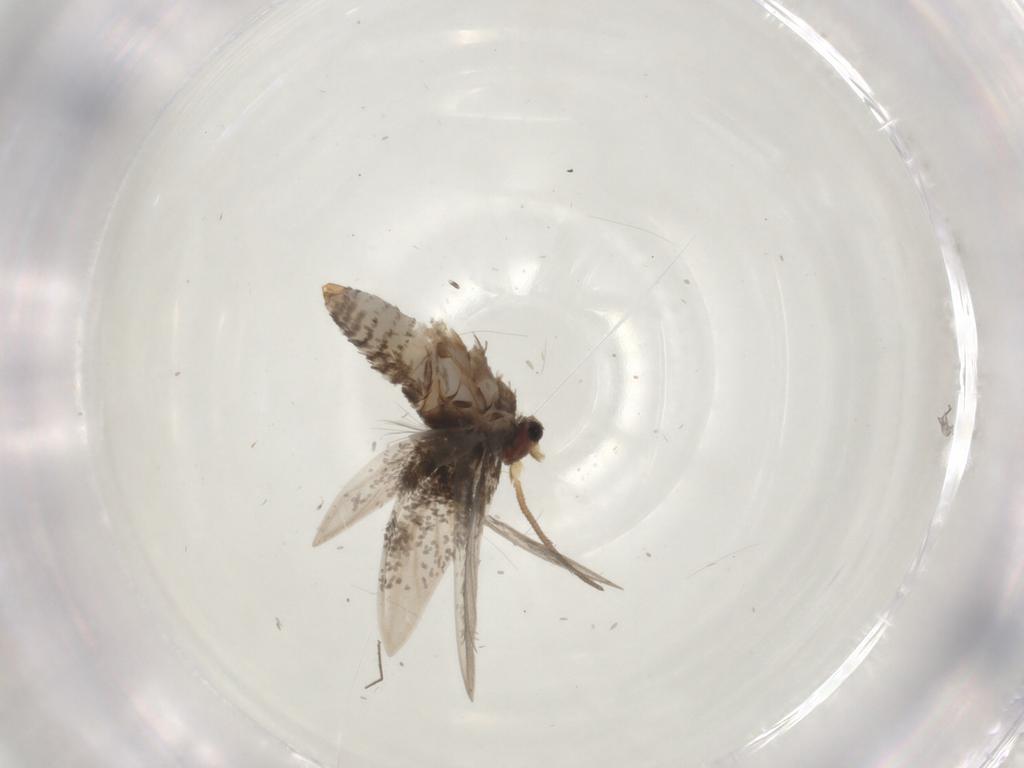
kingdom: Animalia
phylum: Arthropoda
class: Insecta
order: Lepidoptera
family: Nepticulidae
